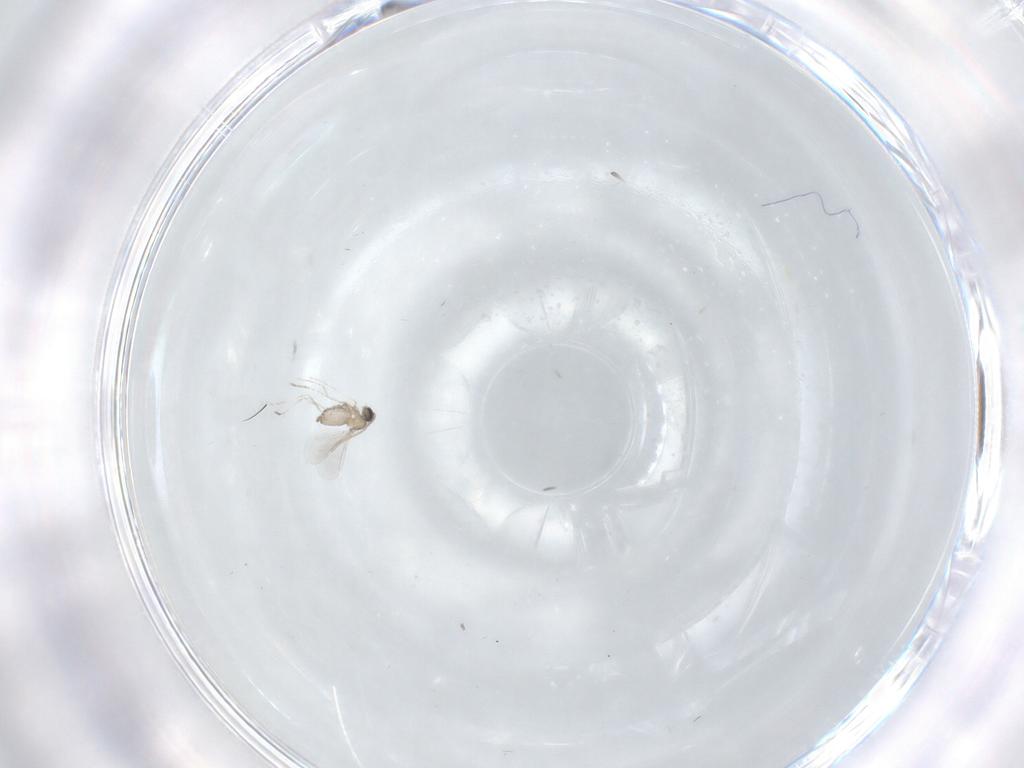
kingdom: Animalia
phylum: Arthropoda
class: Insecta
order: Diptera
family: Cecidomyiidae
